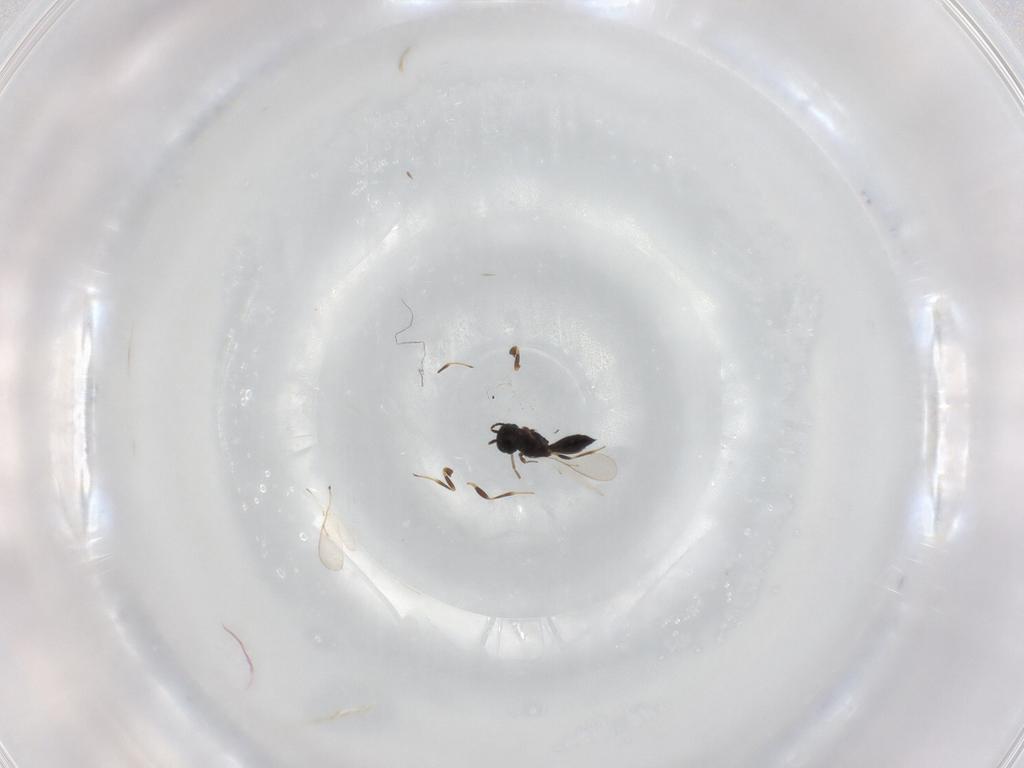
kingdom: Animalia
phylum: Arthropoda
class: Insecta
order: Hymenoptera
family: Scelionidae
